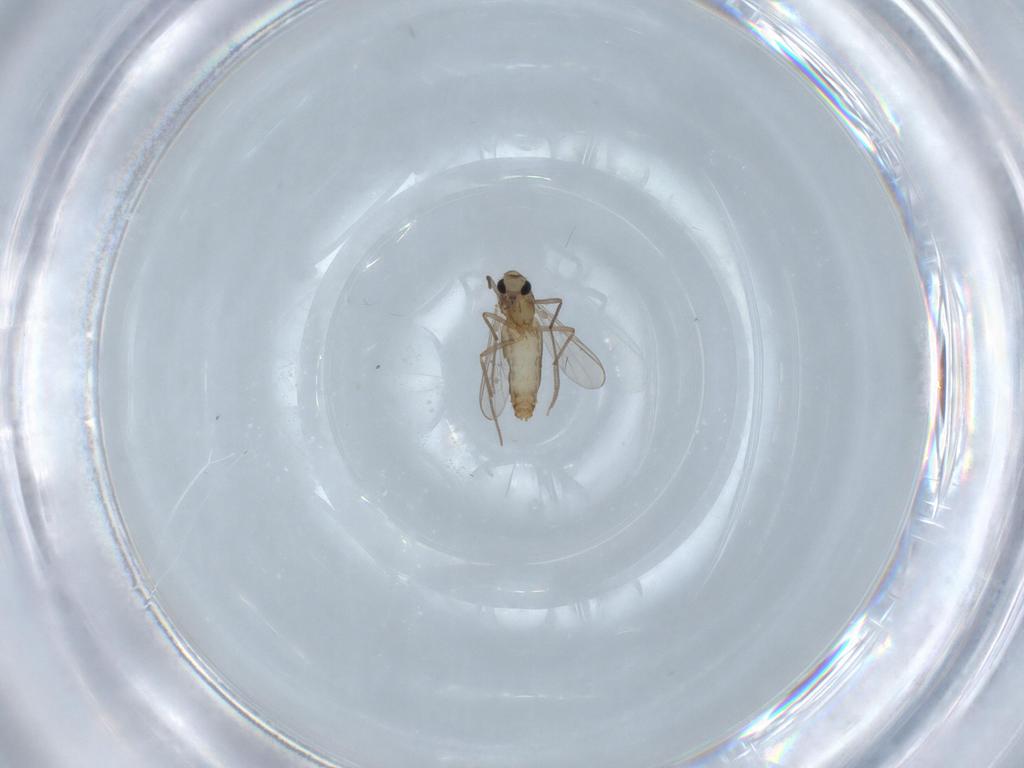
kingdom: Animalia
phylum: Arthropoda
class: Insecta
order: Diptera
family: Chironomidae
